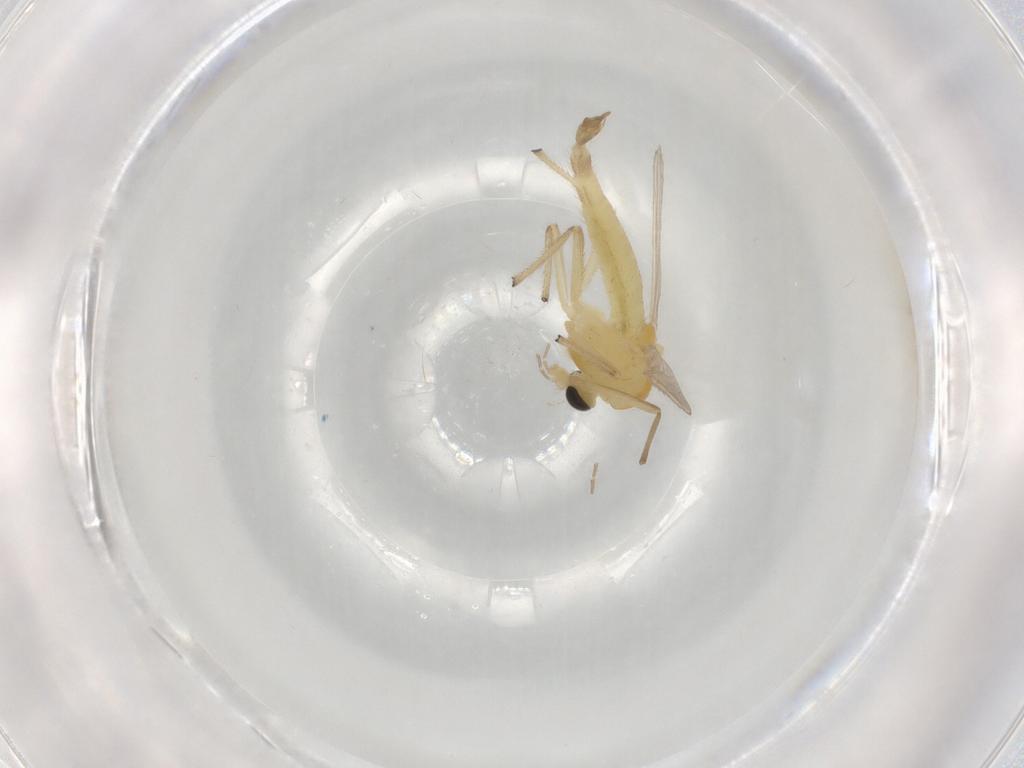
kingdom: Animalia
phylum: Arthropoda
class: Insecta
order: Diptera
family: Chironomidae
